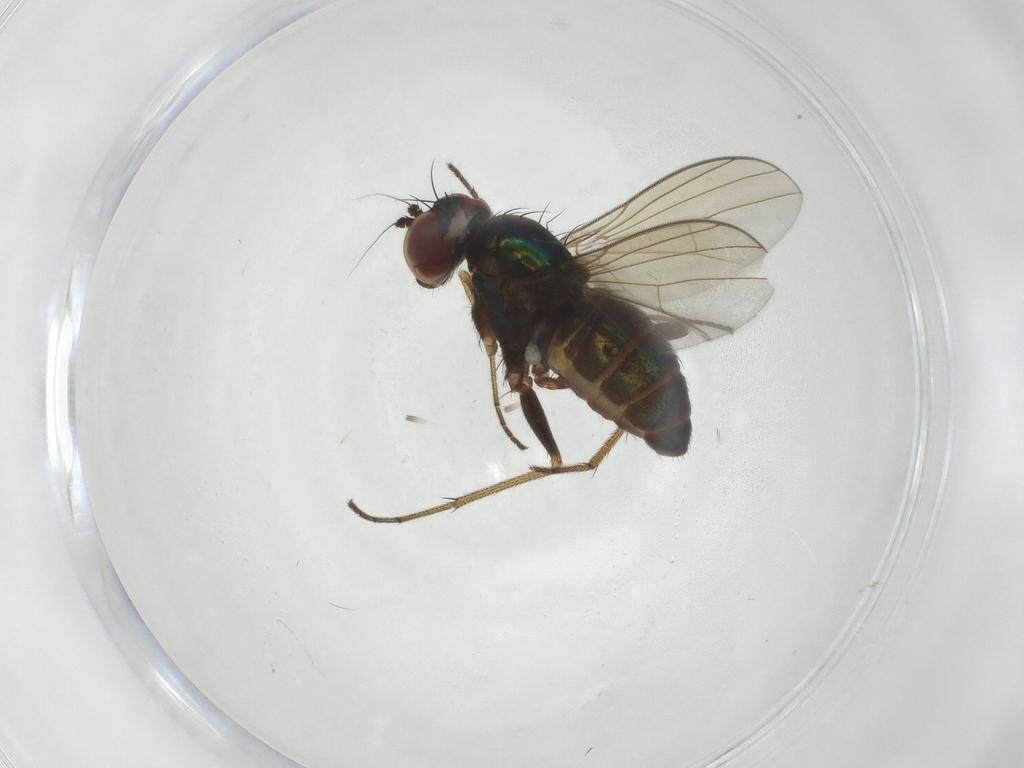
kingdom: Animalia
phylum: Arthropoda
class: Insecta
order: Diptera
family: Dolichopodidae
